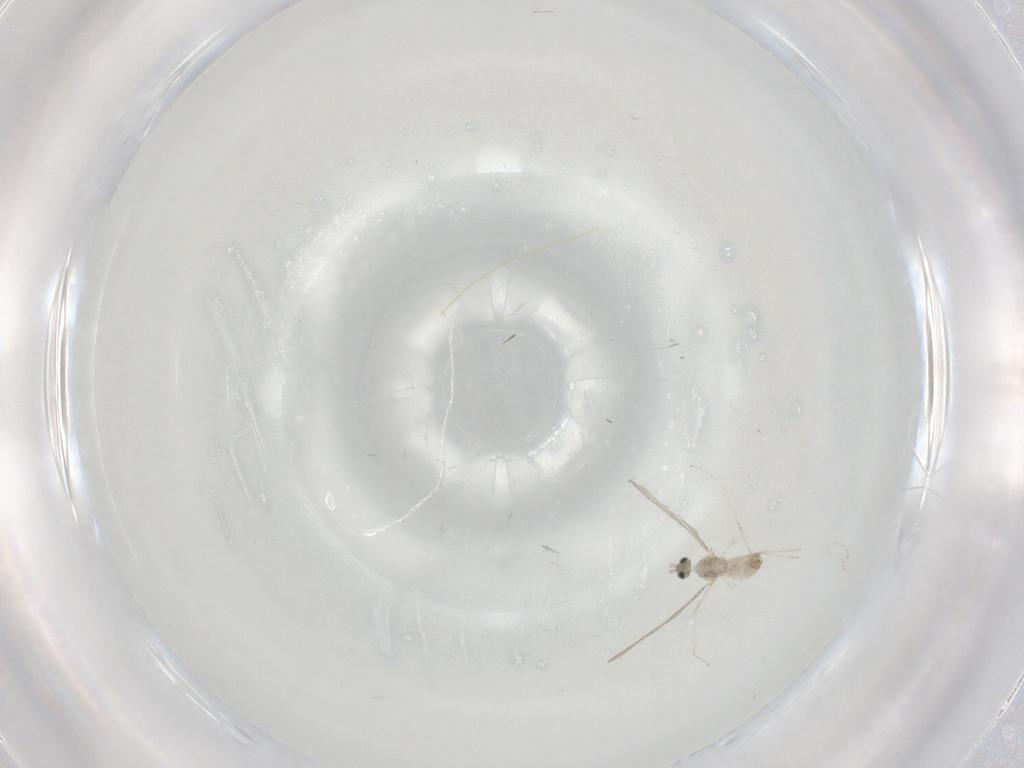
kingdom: Animalia
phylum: Arthropoda
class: Insecta
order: Diptera
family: Cecidomyiidae
